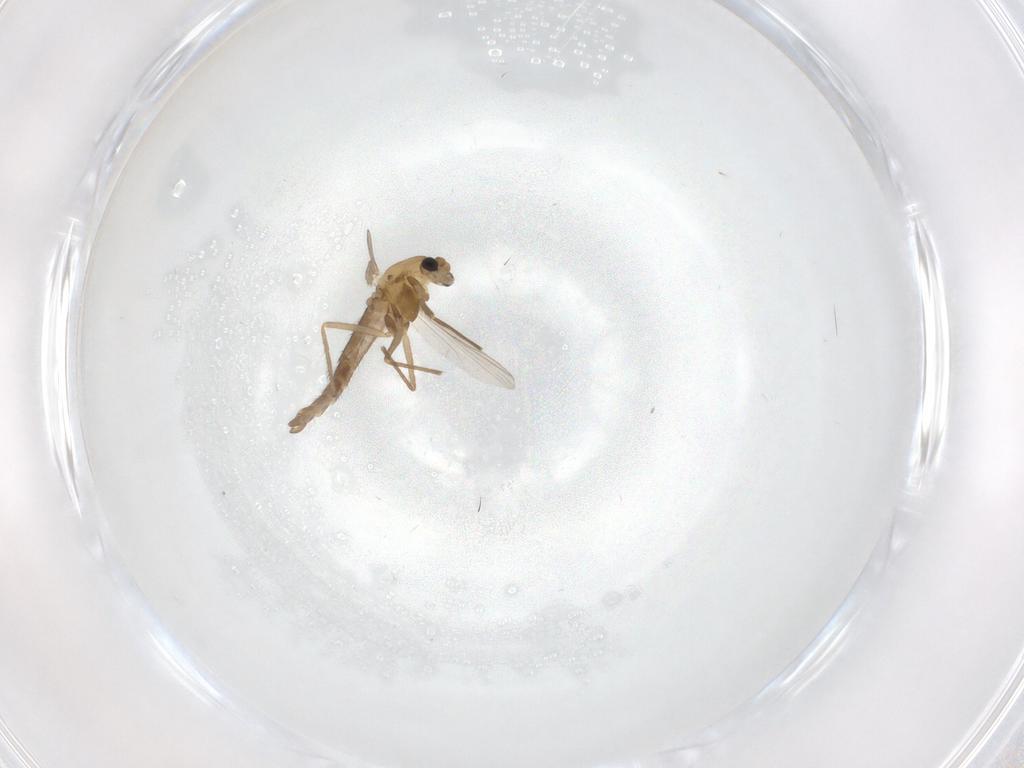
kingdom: Animalia
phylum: Arthropoda
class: Insecta
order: Diptera
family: Chironomidae
